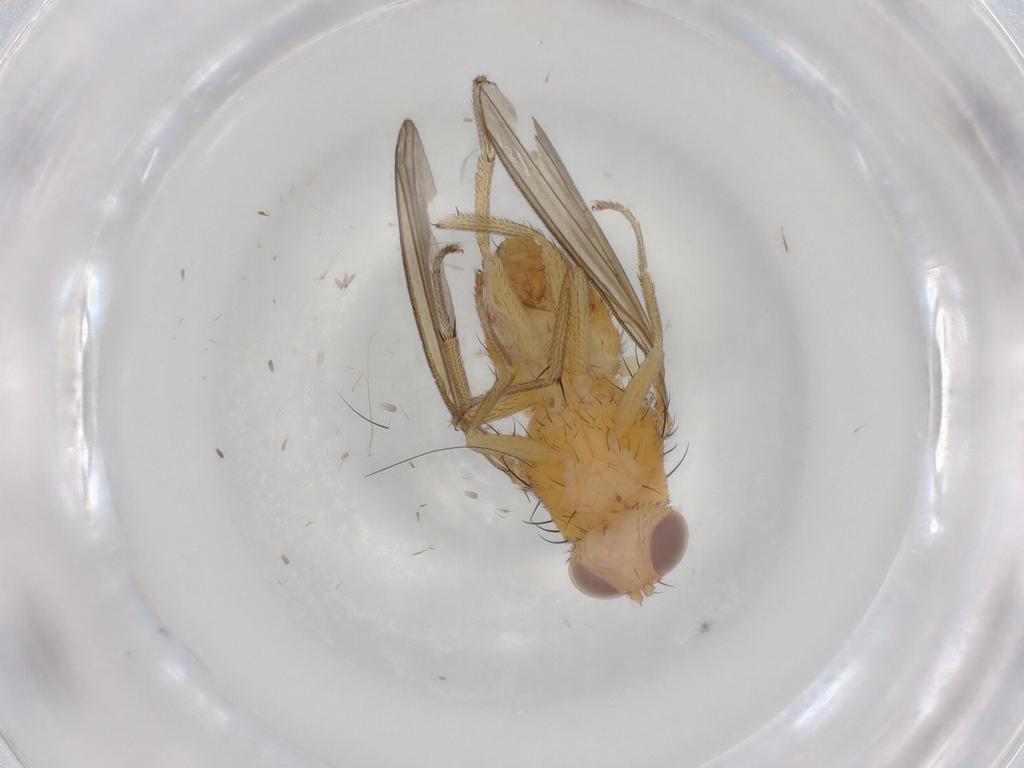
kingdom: Animalia
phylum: Arthropoda
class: Insecta
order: Diptera
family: Cecidomyiidae
